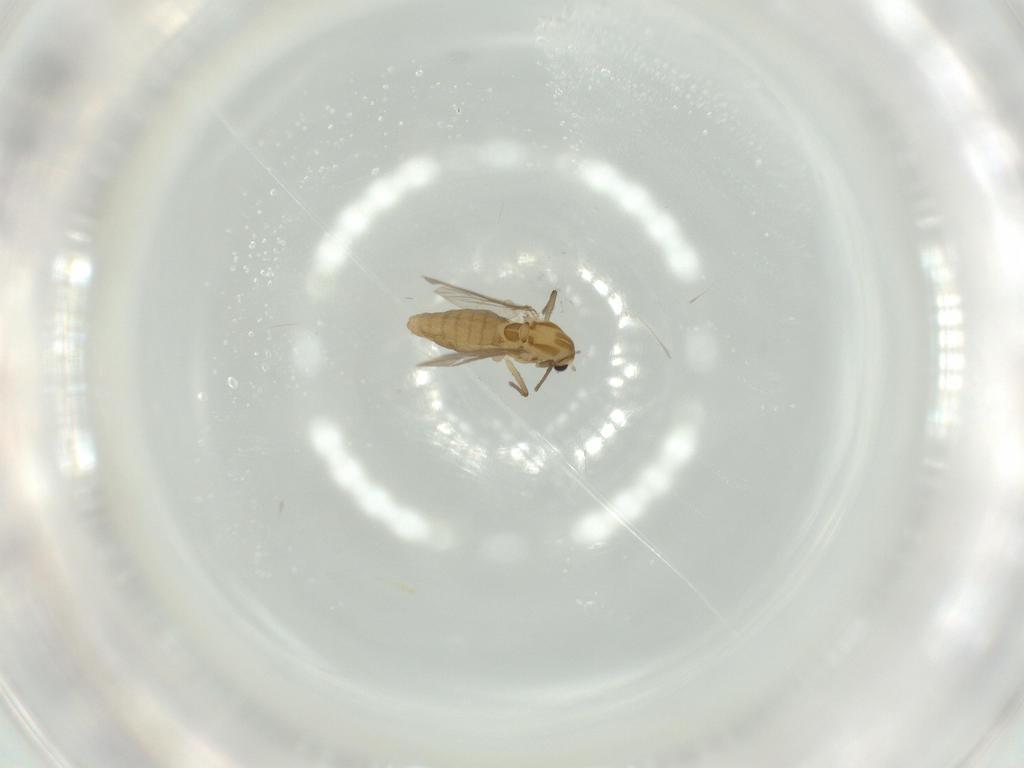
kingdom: Animalia
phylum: Arthropoda
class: Insecta
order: Diptera
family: Chironomidae
